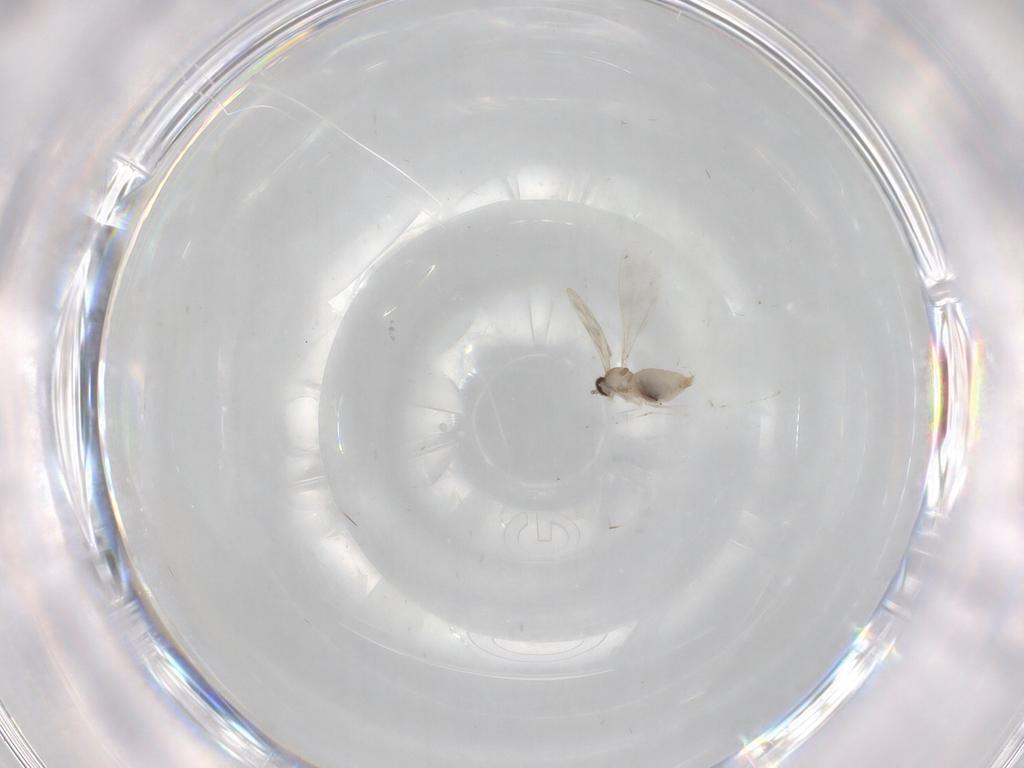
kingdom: Animalia
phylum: Arthropoda
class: Insecta
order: Diptera
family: Cecidomyiidae
